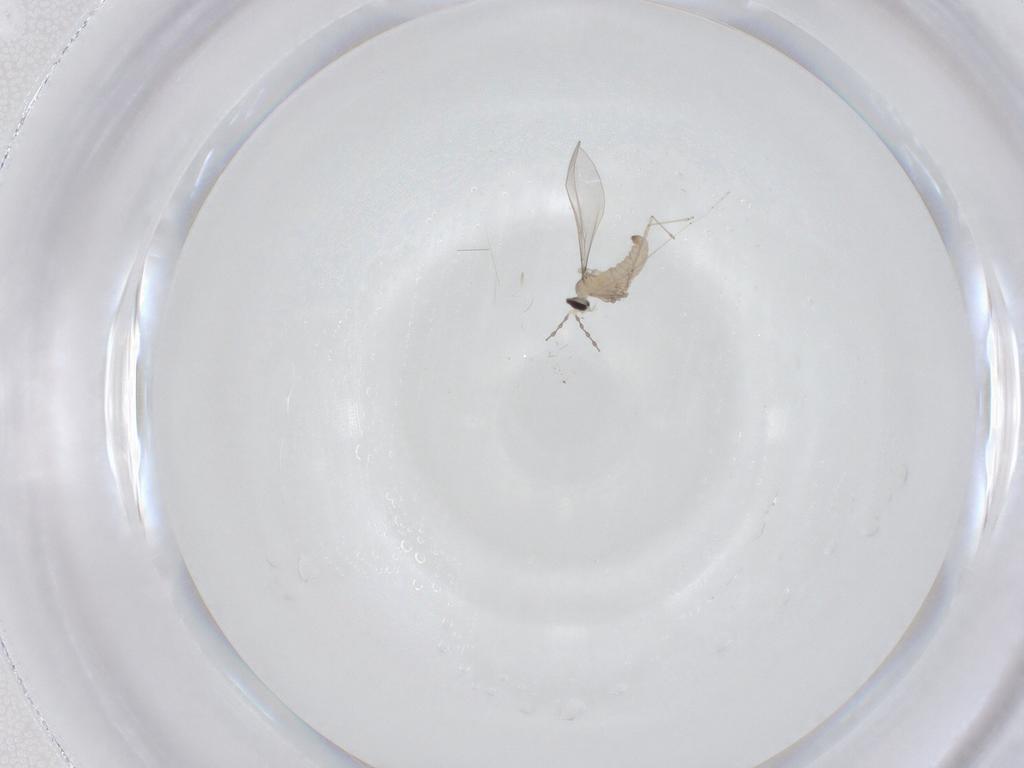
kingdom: Animalia
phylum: Arthropoda
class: Insecta
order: Diptera
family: Cecidomyiidae
